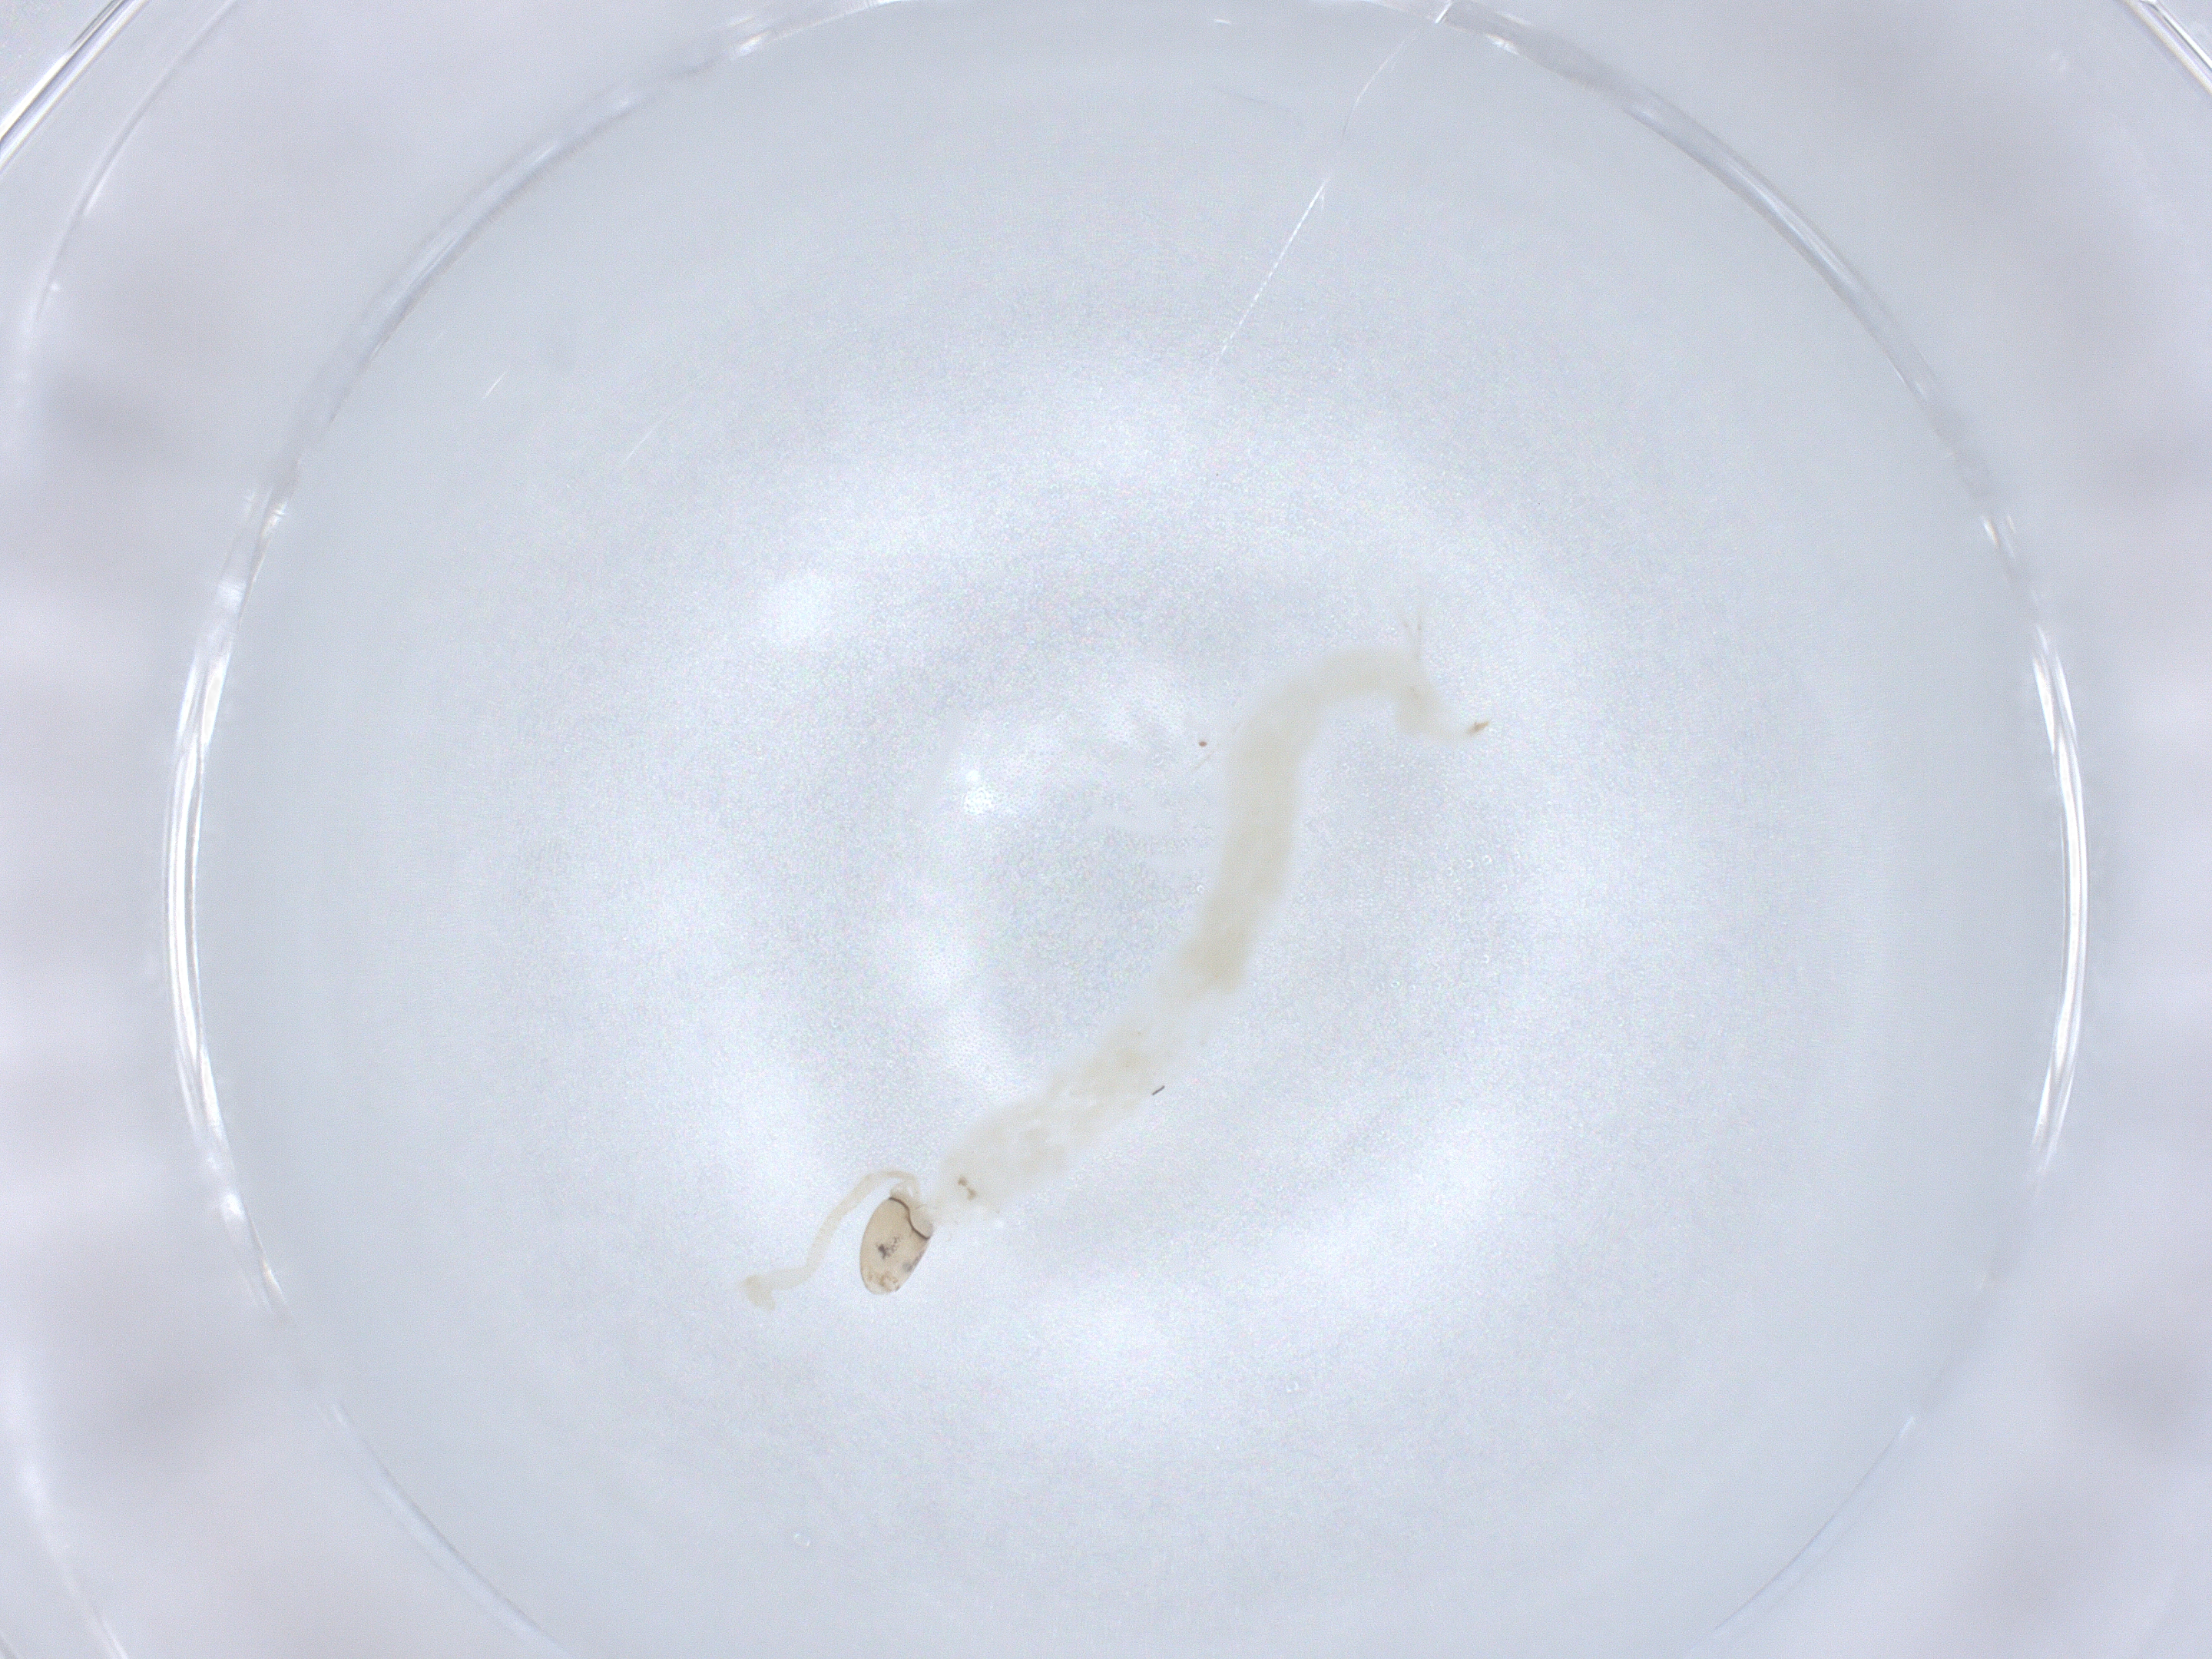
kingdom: Animalia
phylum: Arthropoda
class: Insecta
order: Diptera
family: Chironomidae
